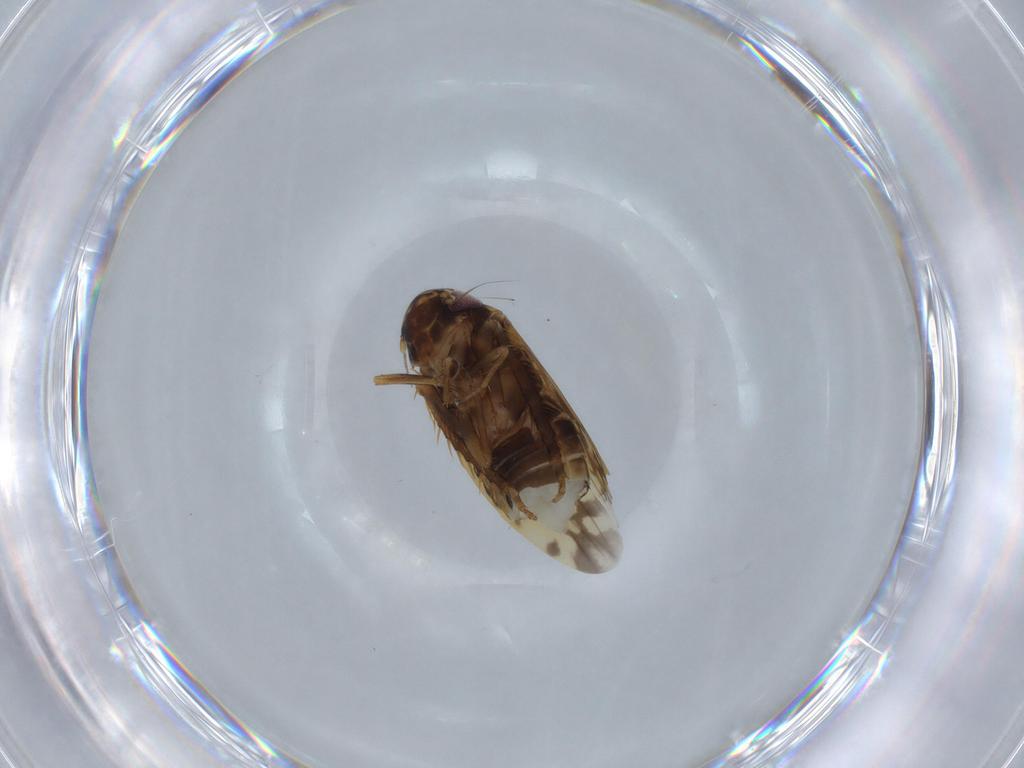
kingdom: Animalia
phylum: Arthropoda
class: Insecta
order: Hemiptera
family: Cicadellidae
